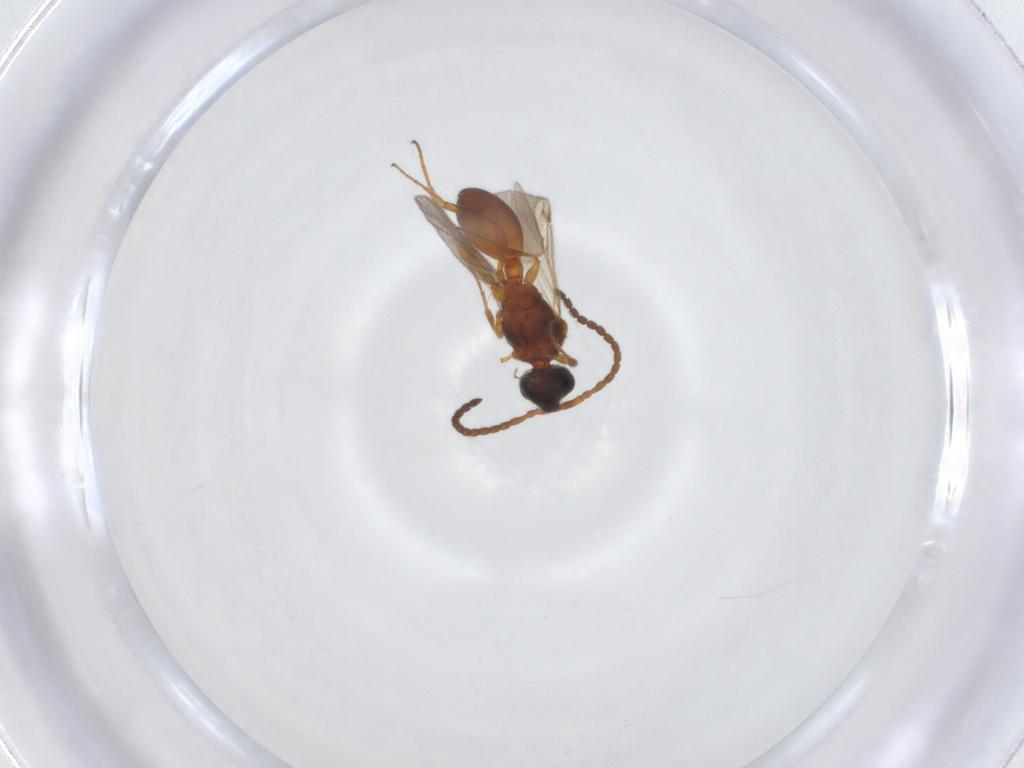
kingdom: Animalia
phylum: Arthropoda
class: Insecta
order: Hymenoptera
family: Diapriidae
